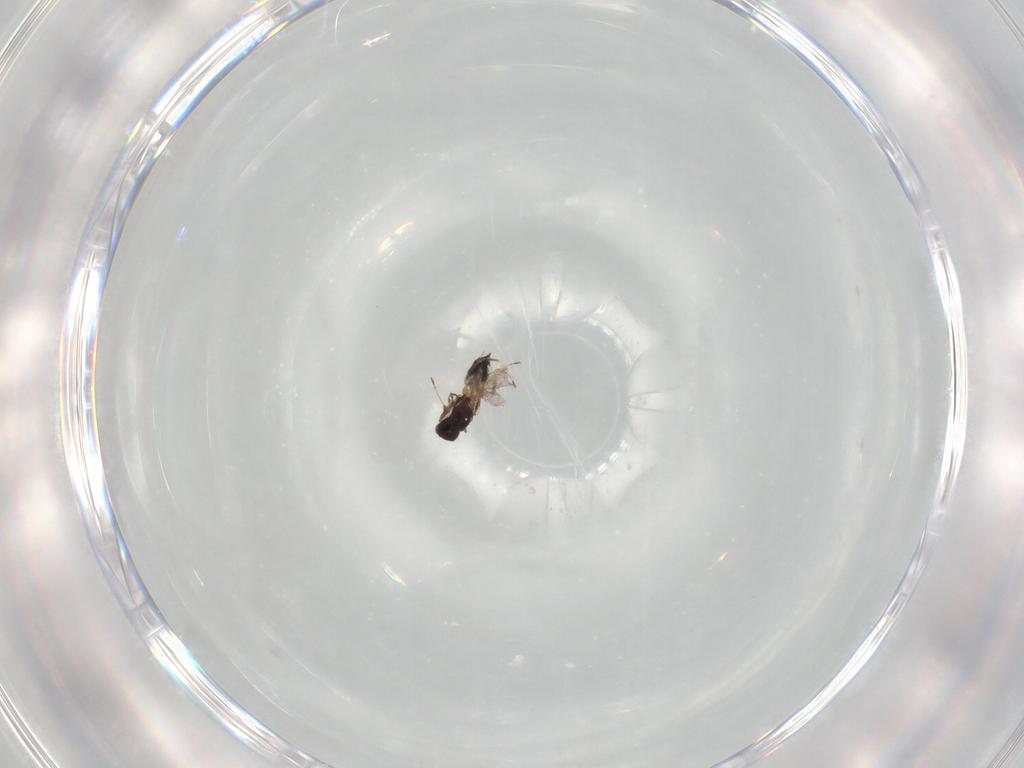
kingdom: Animalia
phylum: Arthropoda
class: Insecta
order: Hymenoptera
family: Mymaridae
